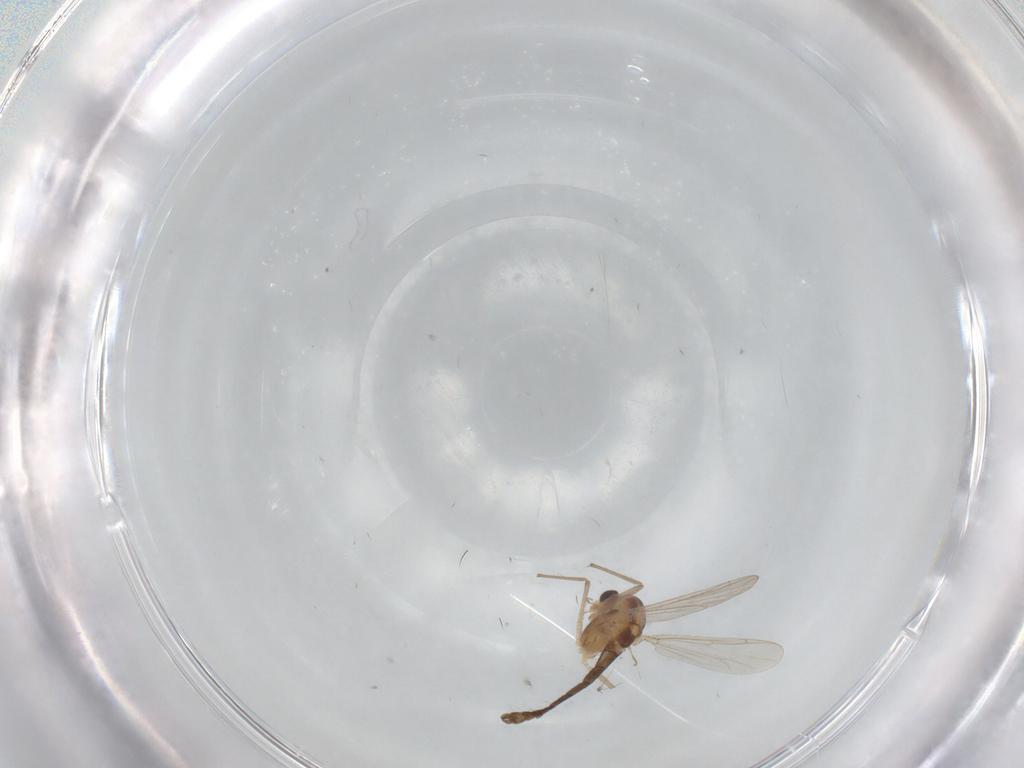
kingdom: Animalia
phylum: Arthropoda
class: Insecta
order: Diptera
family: Chironomidae
